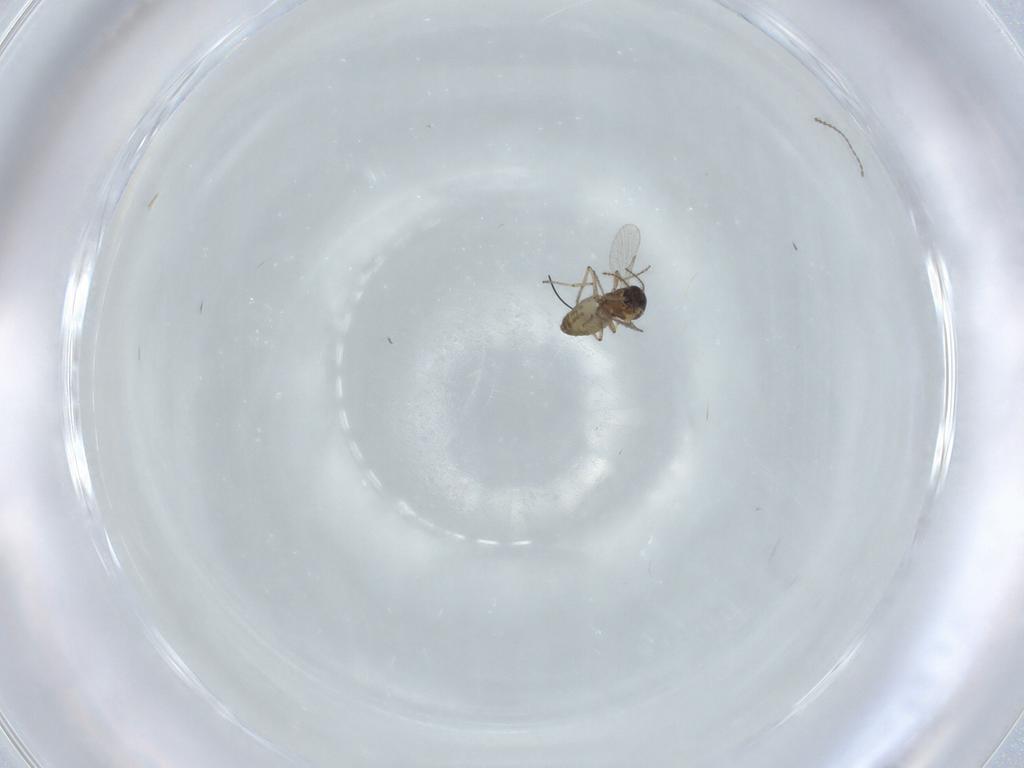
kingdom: Animalia
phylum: Arthropoda
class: Insecta
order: Diptera
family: Ceratopogonidae
